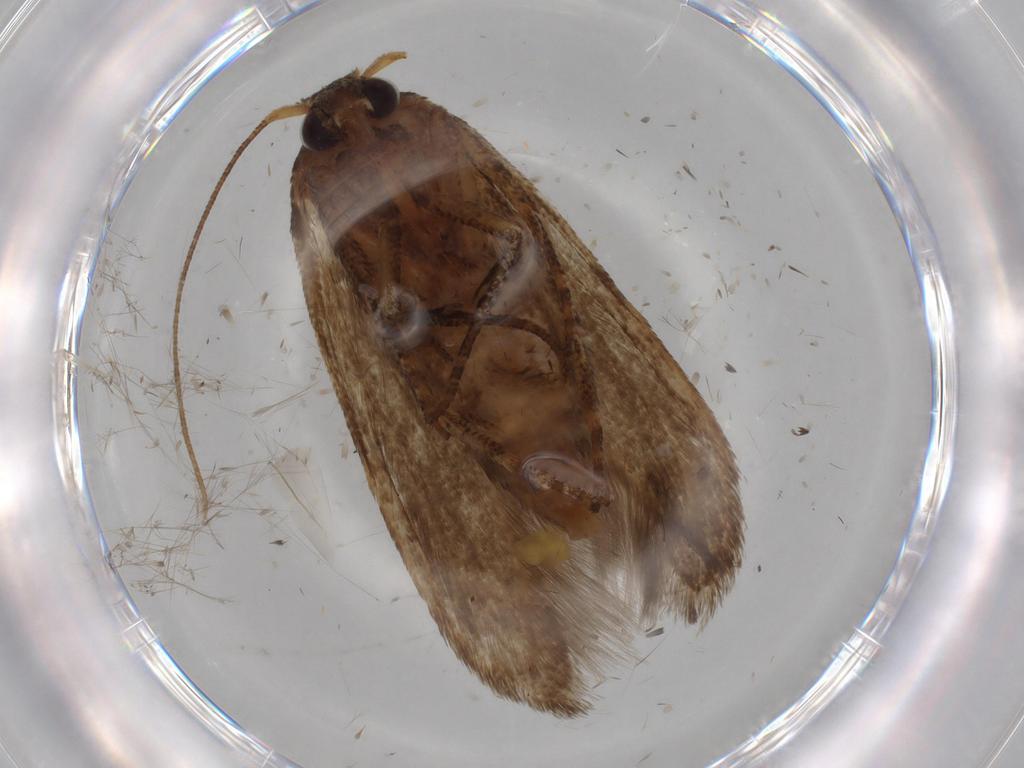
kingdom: Animalia
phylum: Arthropoda
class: Insecta
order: Lepidoptera
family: Coleophoridae
